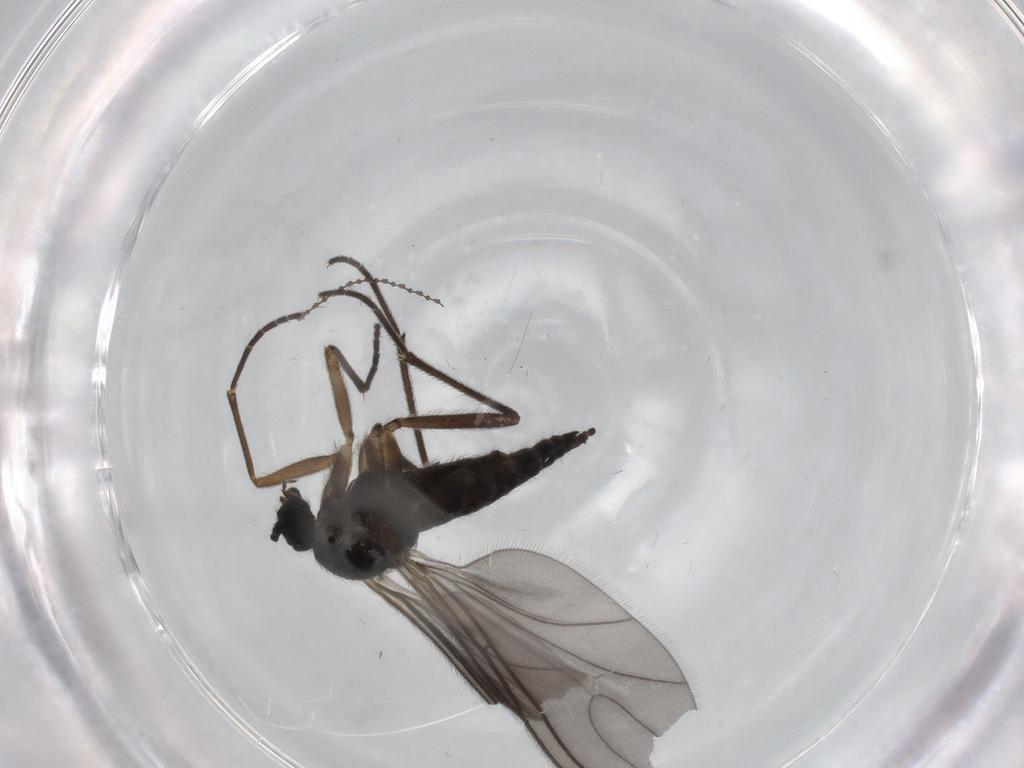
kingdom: Animalia
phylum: Arthropoda
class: Insecta
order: Diptera
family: Sciaridae
